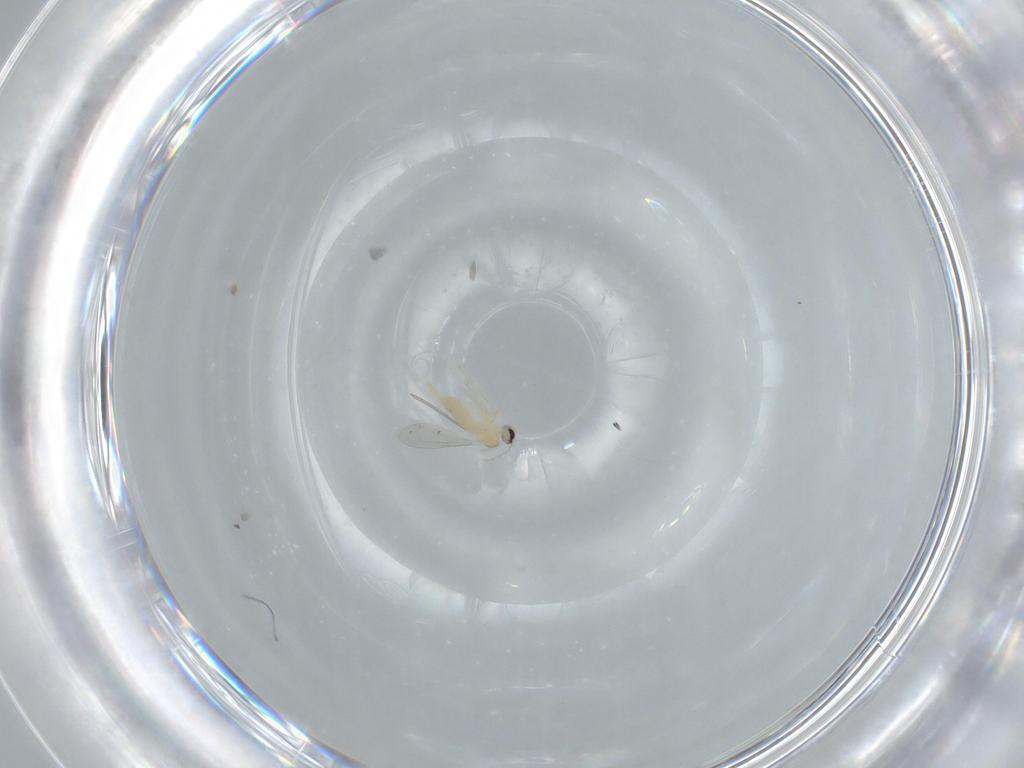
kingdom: Animalia
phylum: Arthropoda
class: Insecta
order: Diptera
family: Cecidomyiidae
